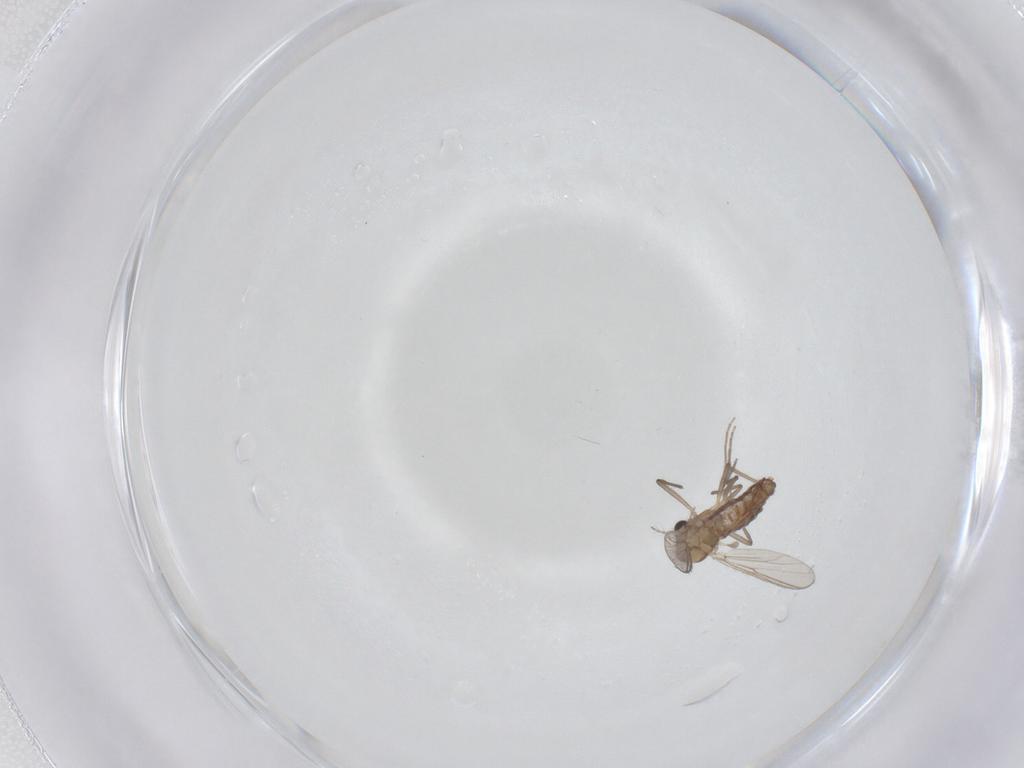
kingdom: Animalia
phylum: Arthropoda
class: Insecta
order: Diptera
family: Chironomidae
